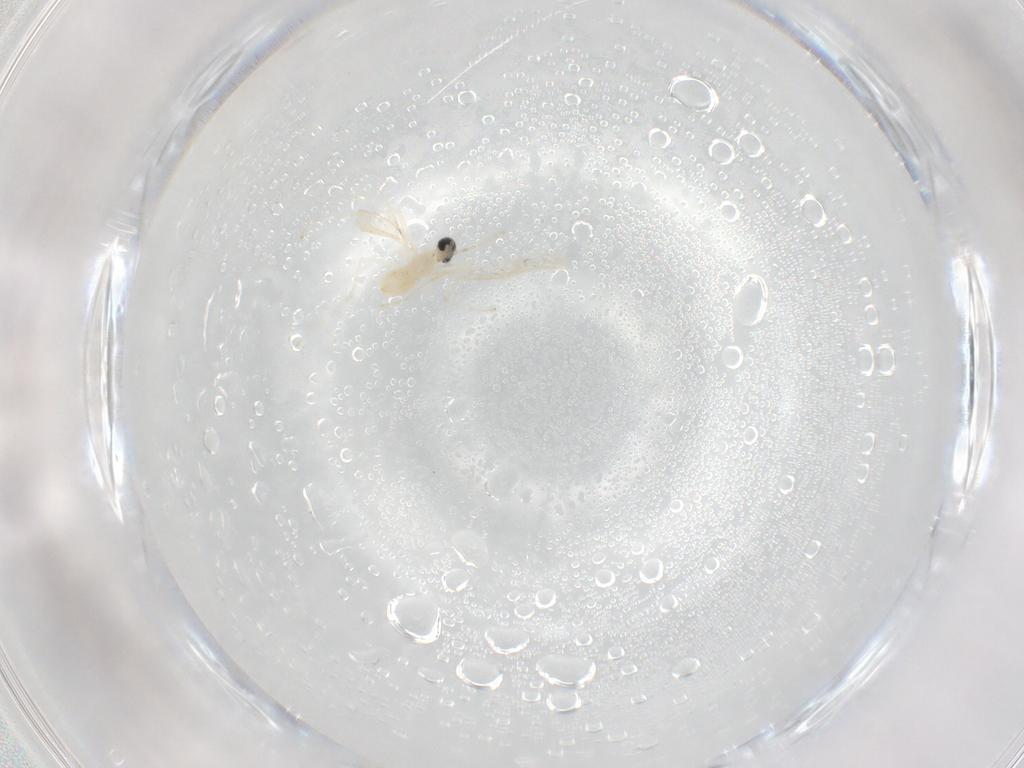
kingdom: Animalia
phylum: Arthropoda
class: Insecta
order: Diptera
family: Cecidomyiidae
